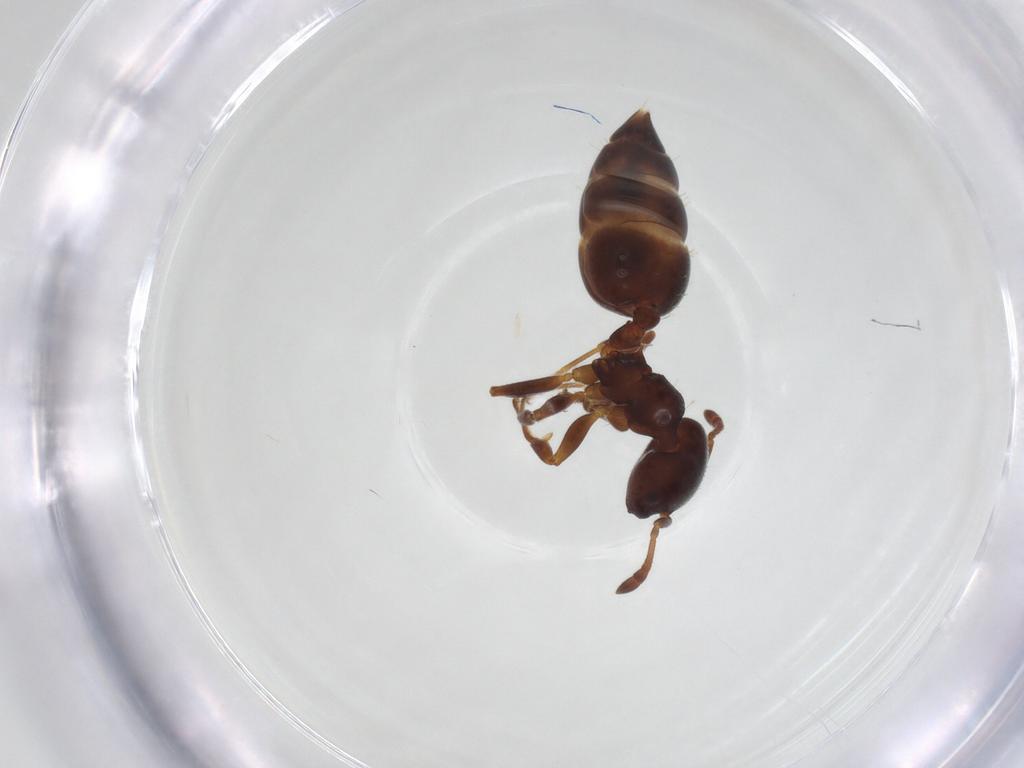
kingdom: Animalia
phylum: Arthropoda
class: Insecta
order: Hymenoptera
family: Formicidae
